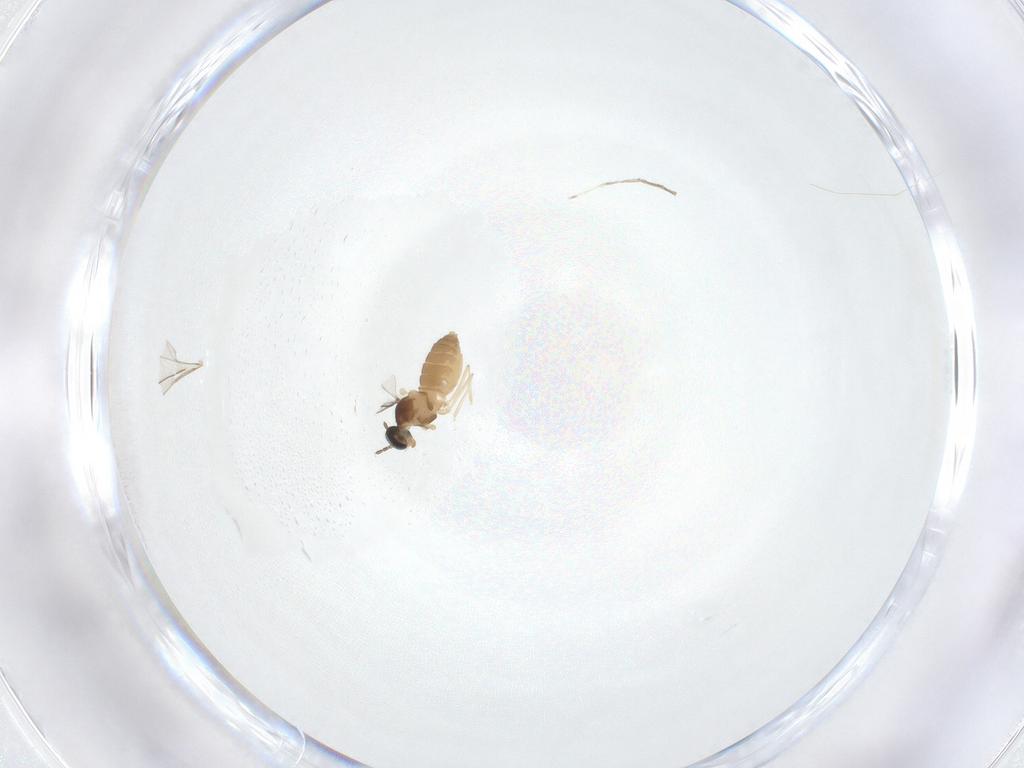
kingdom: Animalia
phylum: Arthropoda
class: Insecta
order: Diptera
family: Cecidomyiidae
